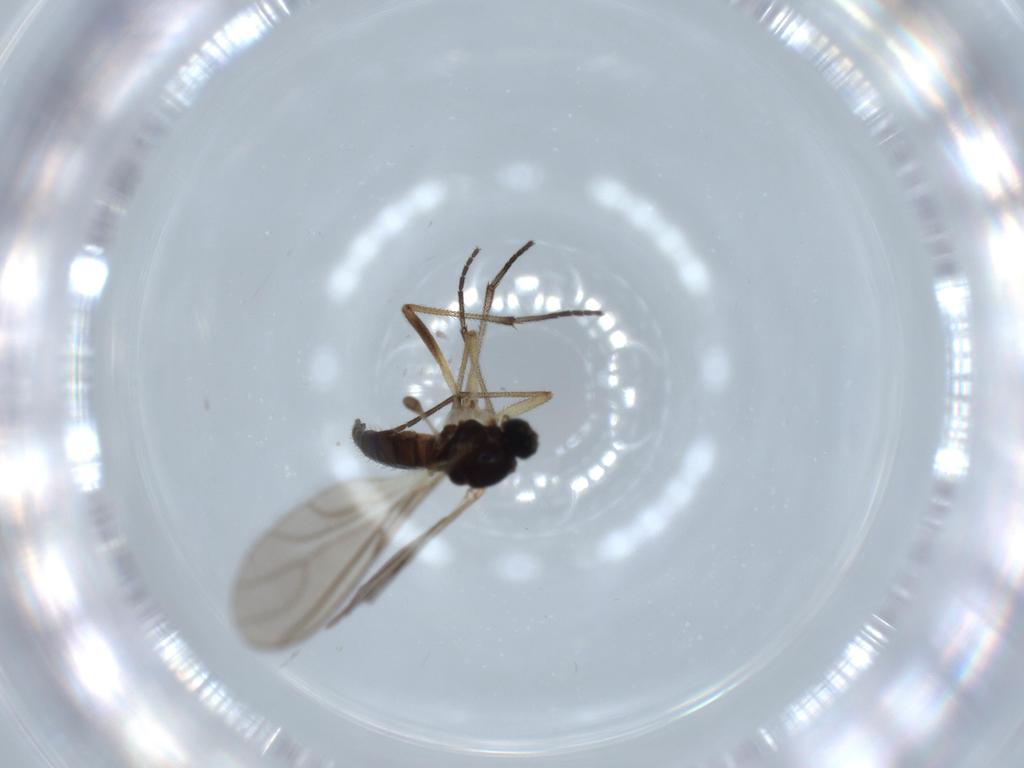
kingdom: Animalia
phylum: Arthropoda
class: Insecta
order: Diptera
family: Sciaridae
